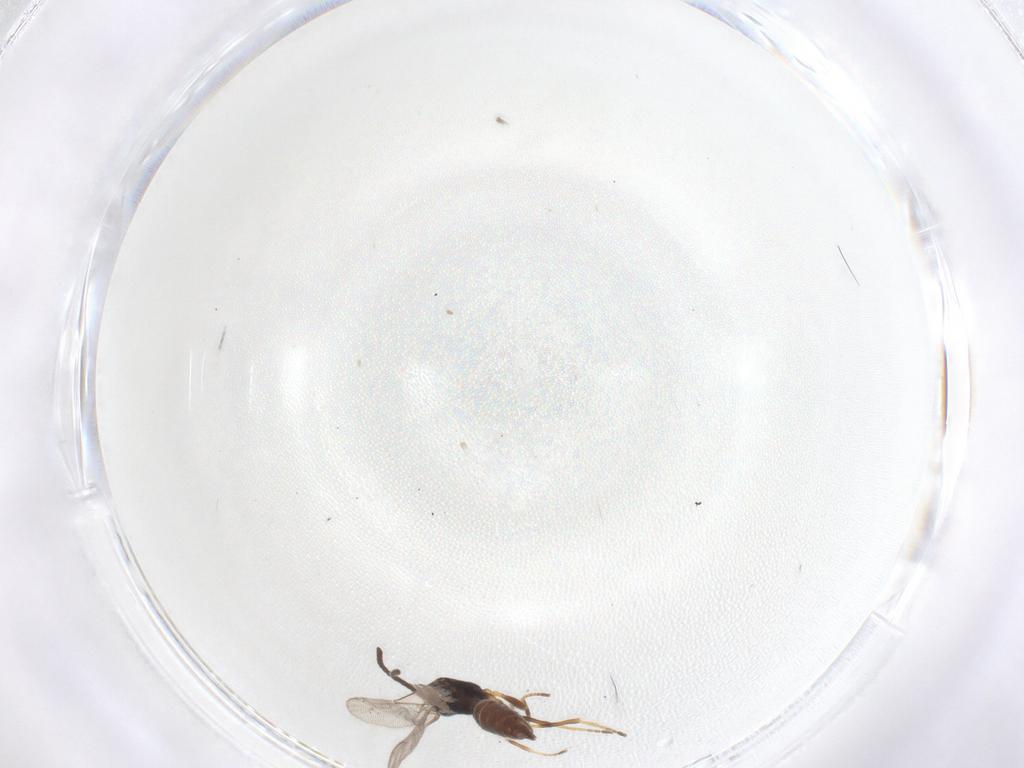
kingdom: Animalia
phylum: Arthropoda
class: Insecta
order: Hymenoptera
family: Braconidae
